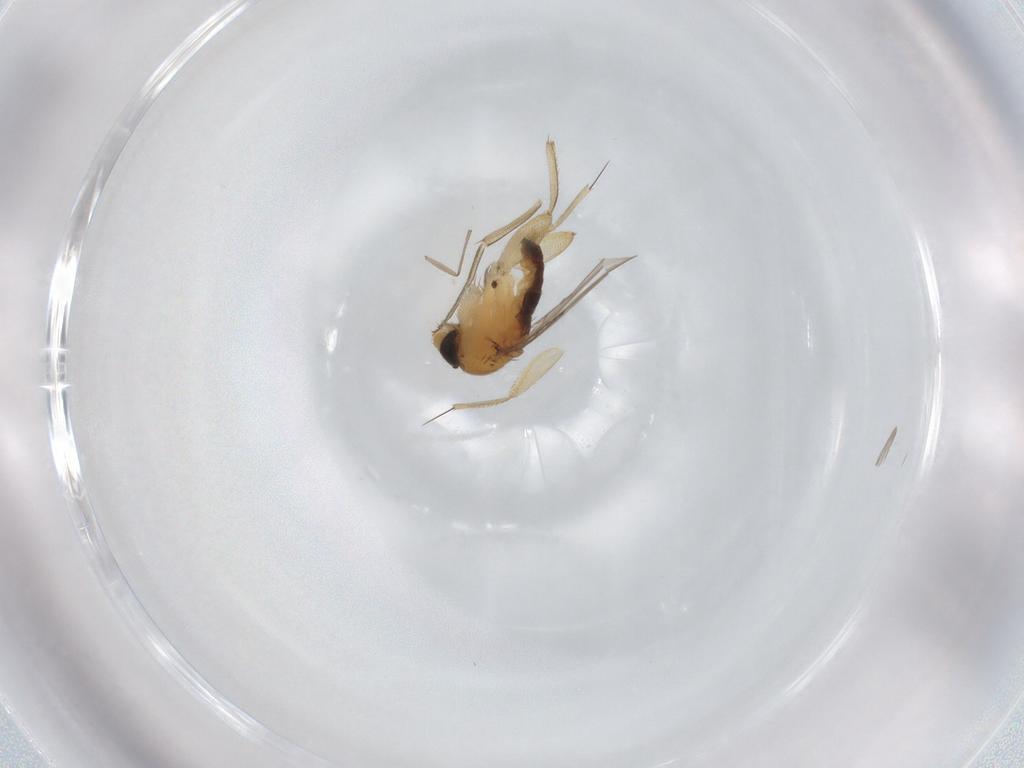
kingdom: Animalia
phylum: Arthropoda
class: Insecta
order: Diptera
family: Phoridae
